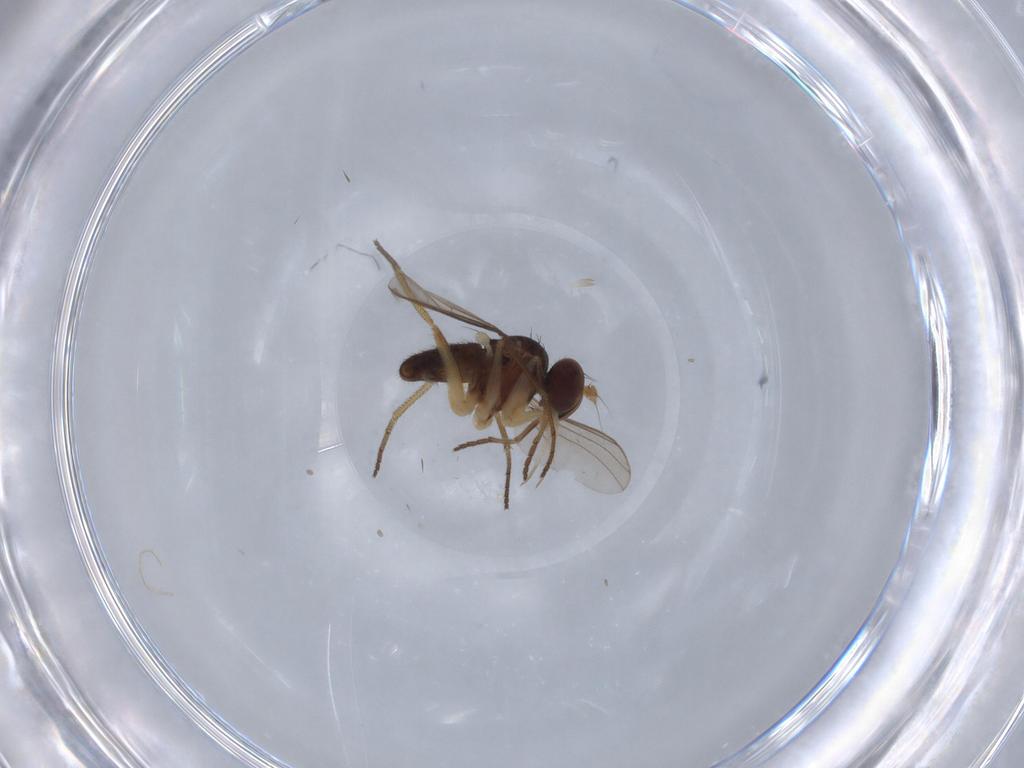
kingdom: Animalia
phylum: Arthropoda
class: Insecta
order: Diptera
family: Dolichopodidae
